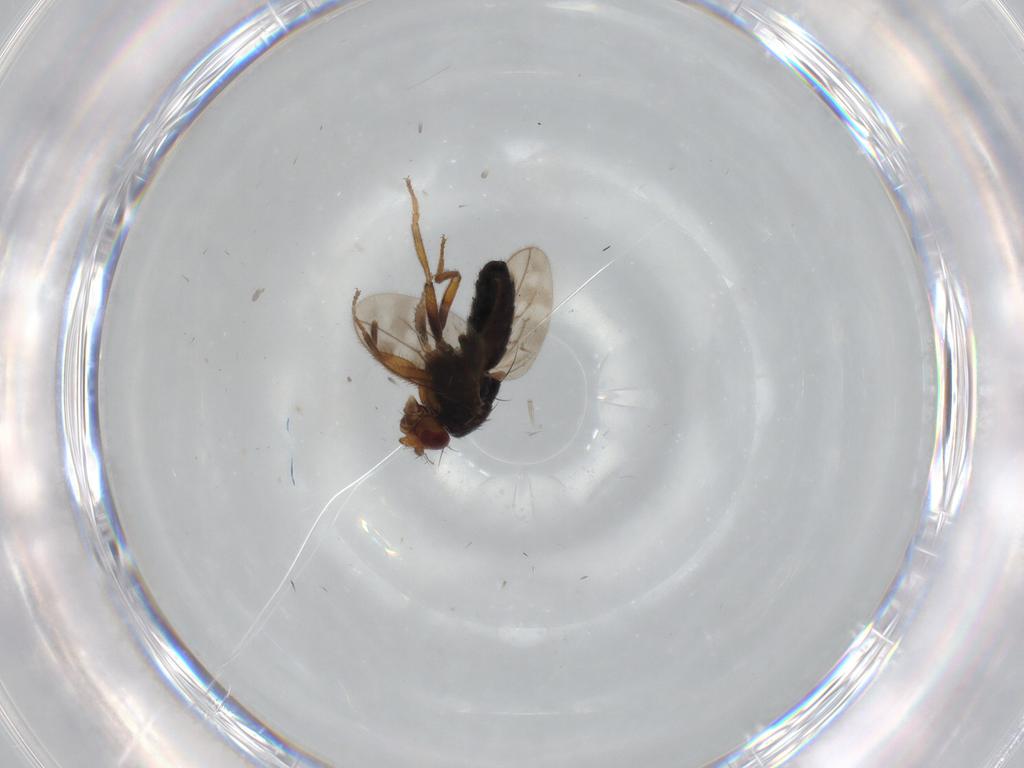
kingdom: Animalia
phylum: Arthropoda
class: Insecta
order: Diptera
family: Sphaeroceridae
